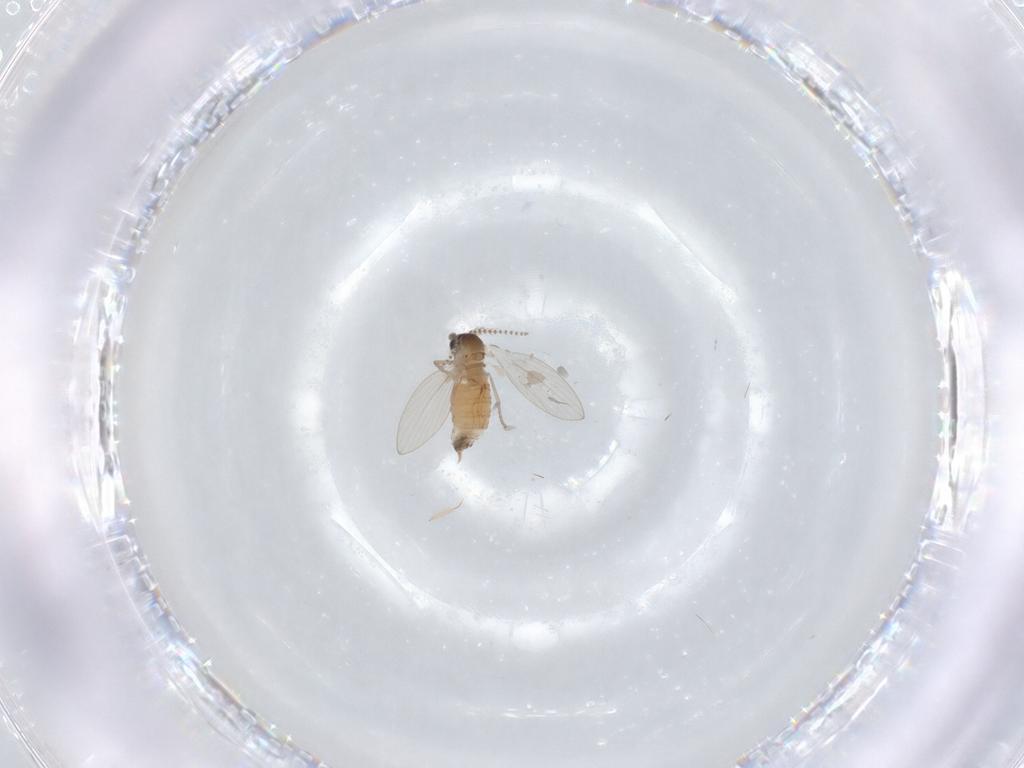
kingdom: Animalia
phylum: Arthropoda
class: Insecta
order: Diptera
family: Psychodidae
